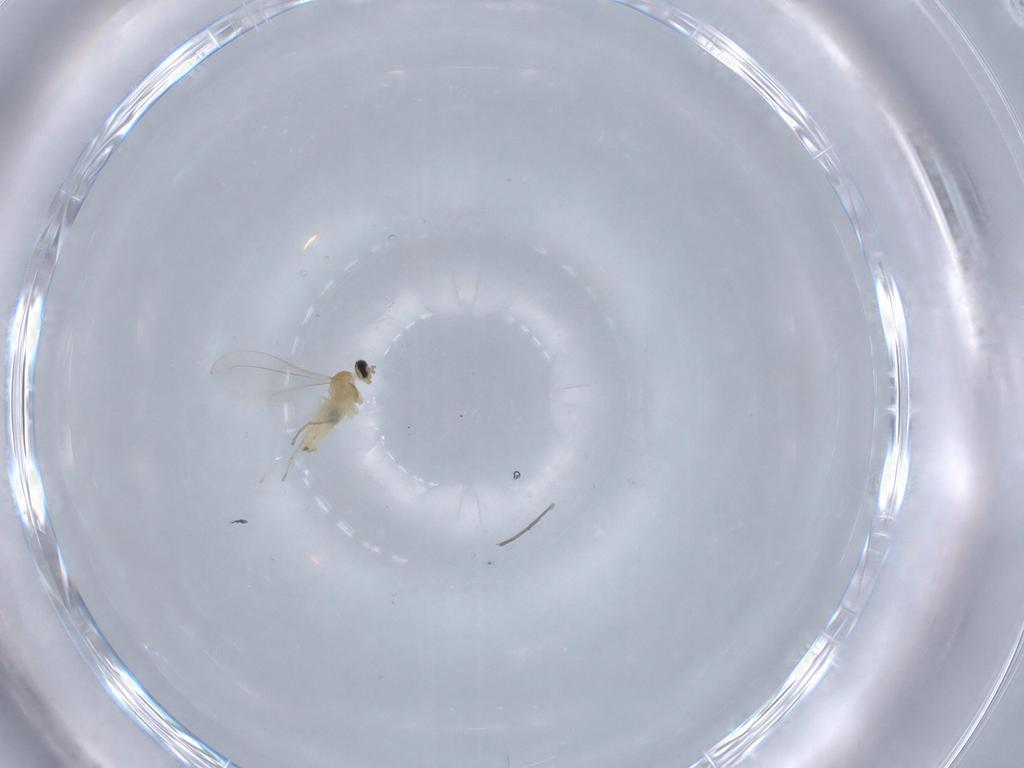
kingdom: Animalia
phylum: Arthropoda
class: Insecta
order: Diptera
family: Cecidomyiidae
